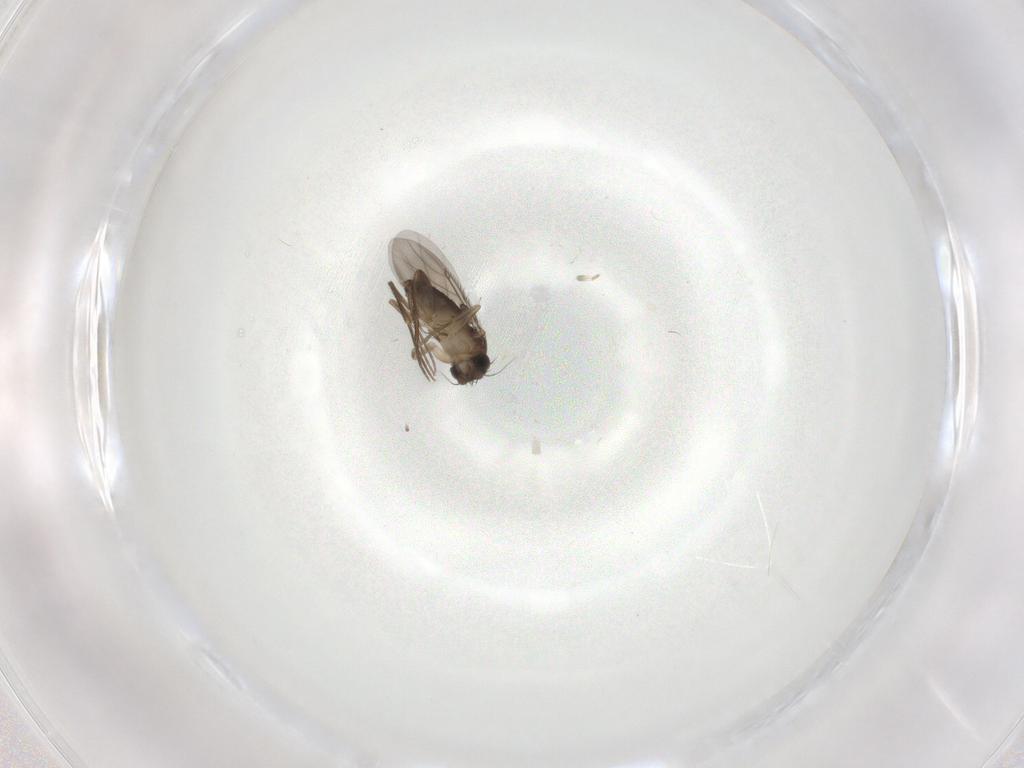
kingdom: Animalia
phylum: Arthropoda
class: Insecta
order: Diptera
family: Phoridae
